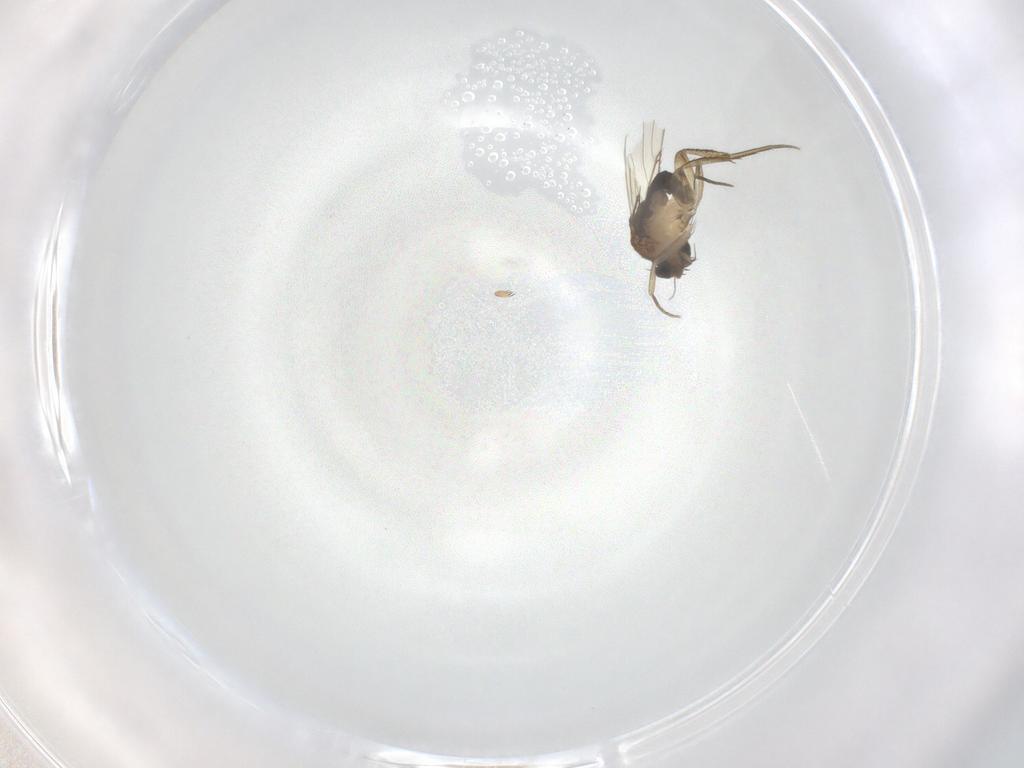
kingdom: Animalia
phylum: Arthropoda
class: Insecta
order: Diptera
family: Phoridae
